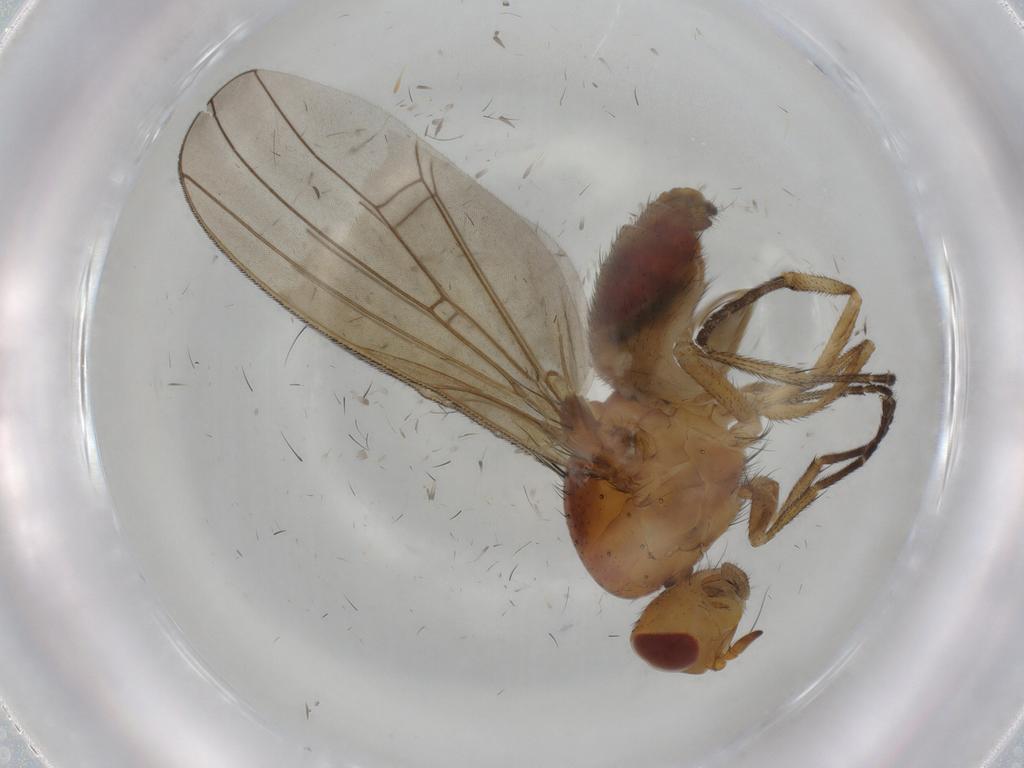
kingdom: Animalia
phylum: Arthropoda
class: Insecta
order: Diptera
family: Lauxaniidae
